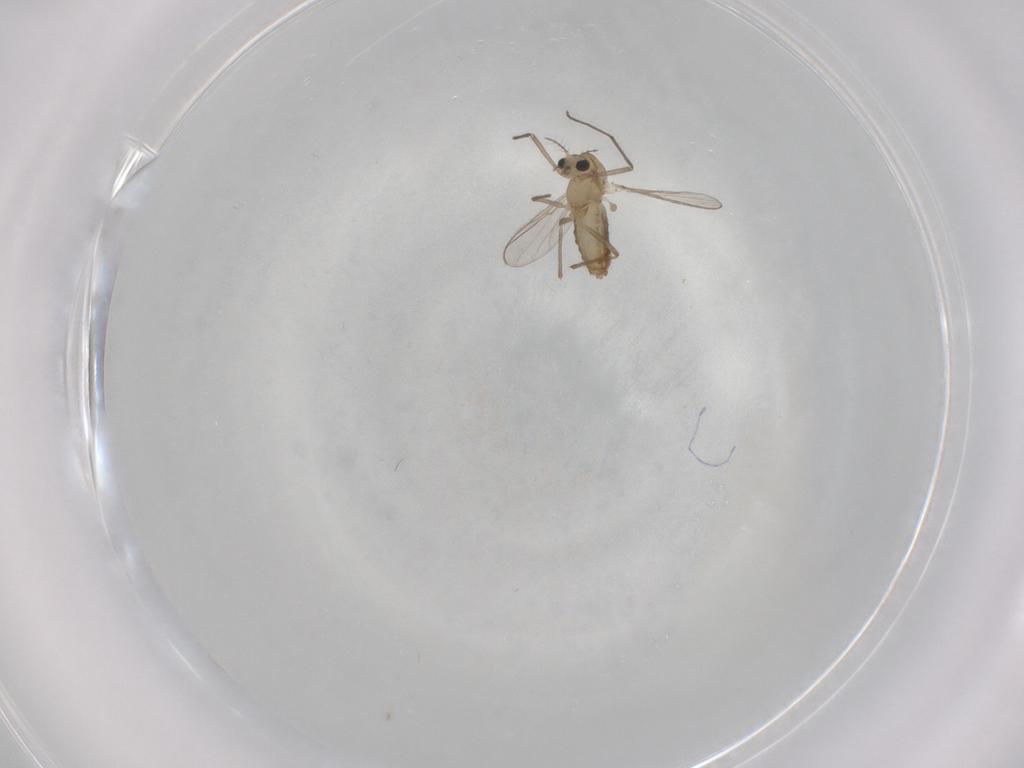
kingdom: Animalia
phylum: Arthropoda
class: Insecta
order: Diptera
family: Chironomidae
